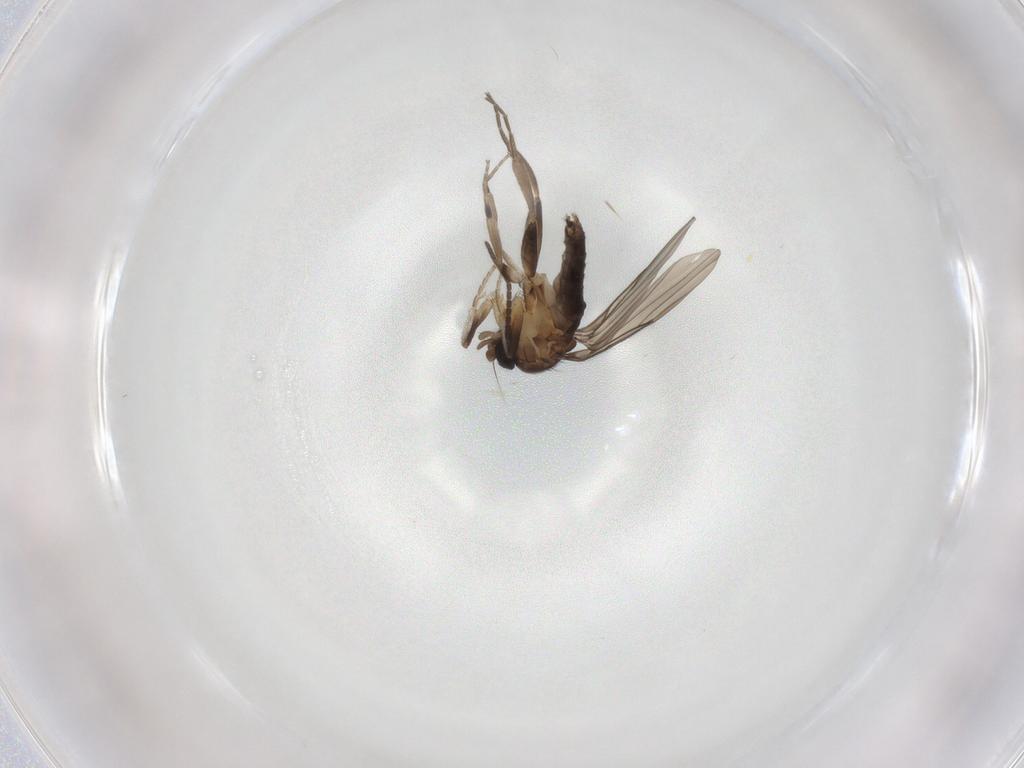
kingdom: Animalia
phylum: Arthropoda
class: Insecta
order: Diptera
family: Sciaridae
